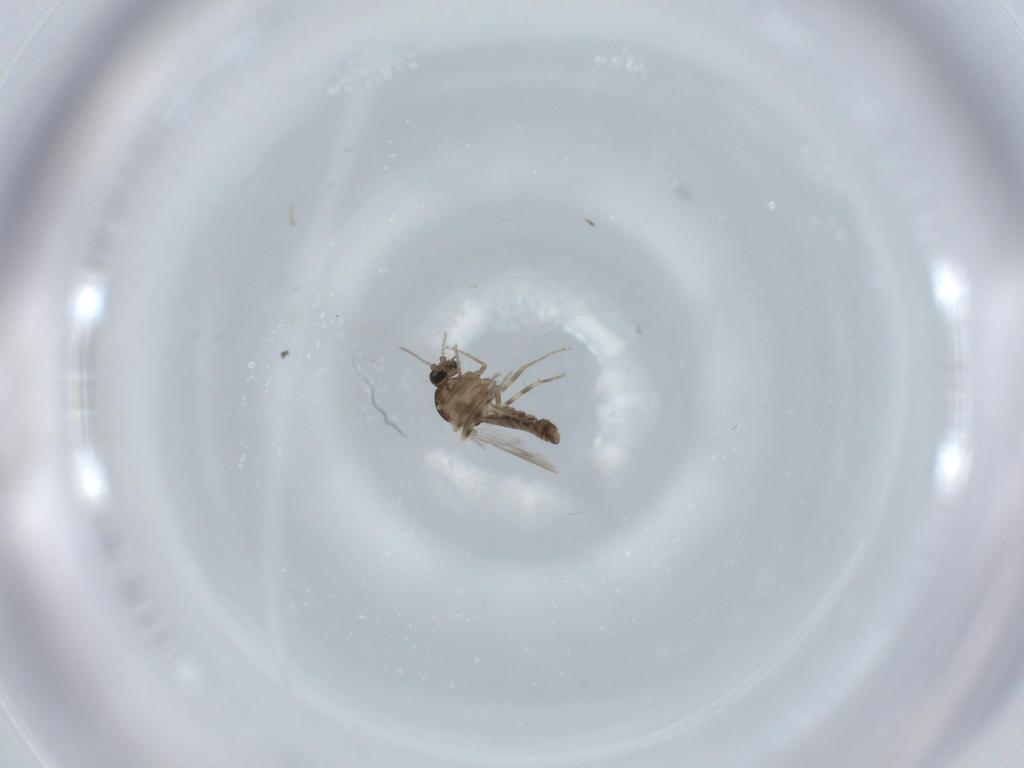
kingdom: Animalia
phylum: Arthropoda
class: Insecta
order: Diptera
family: Ceratopogonidae
